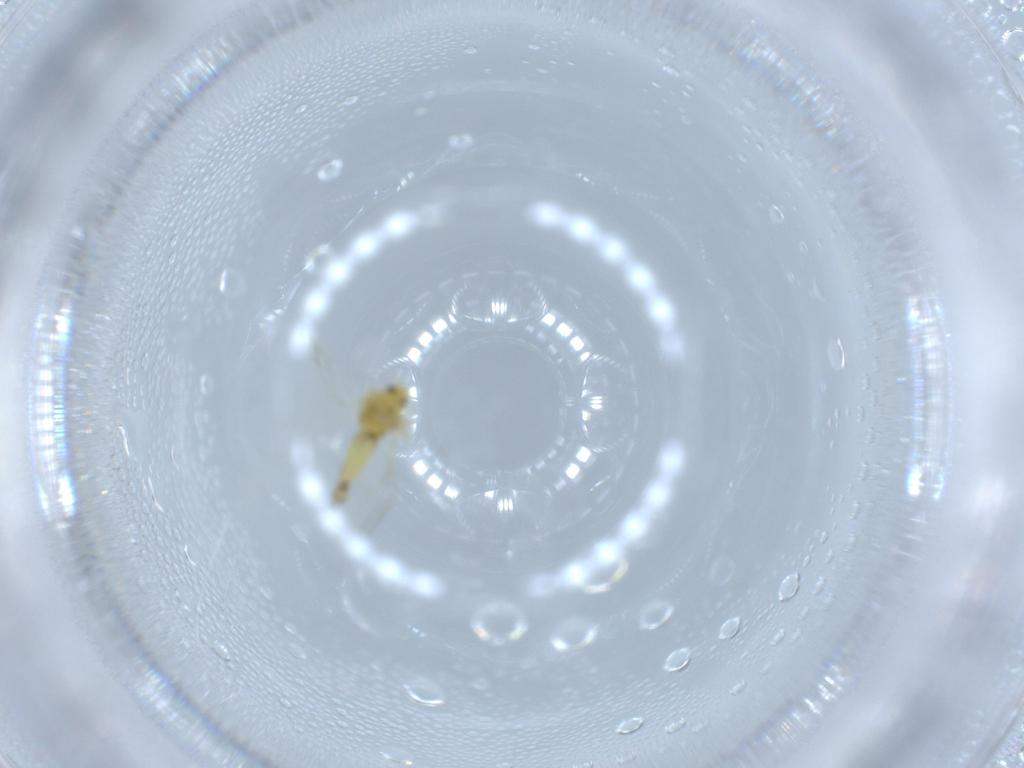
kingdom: Animalia
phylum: Arthropoda
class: Insecta
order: Hemiptera
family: Aleyrodidae
